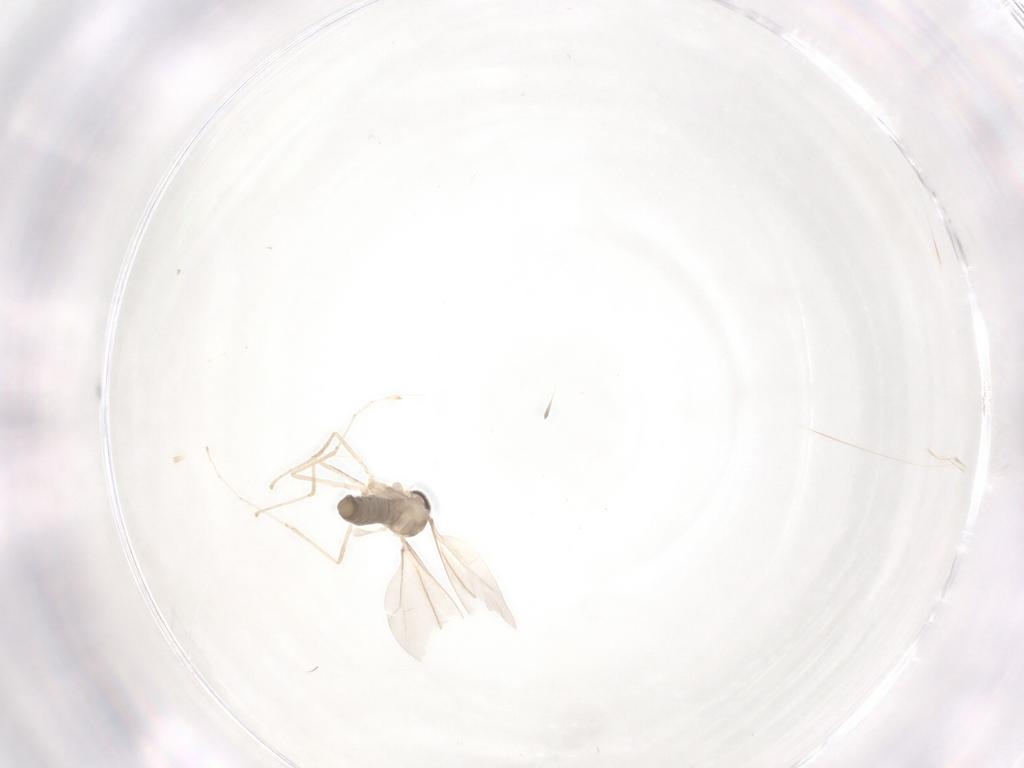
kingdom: Animalia
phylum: Arthropoda
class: Insecta
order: Diptera
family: Cecidomyiidae
